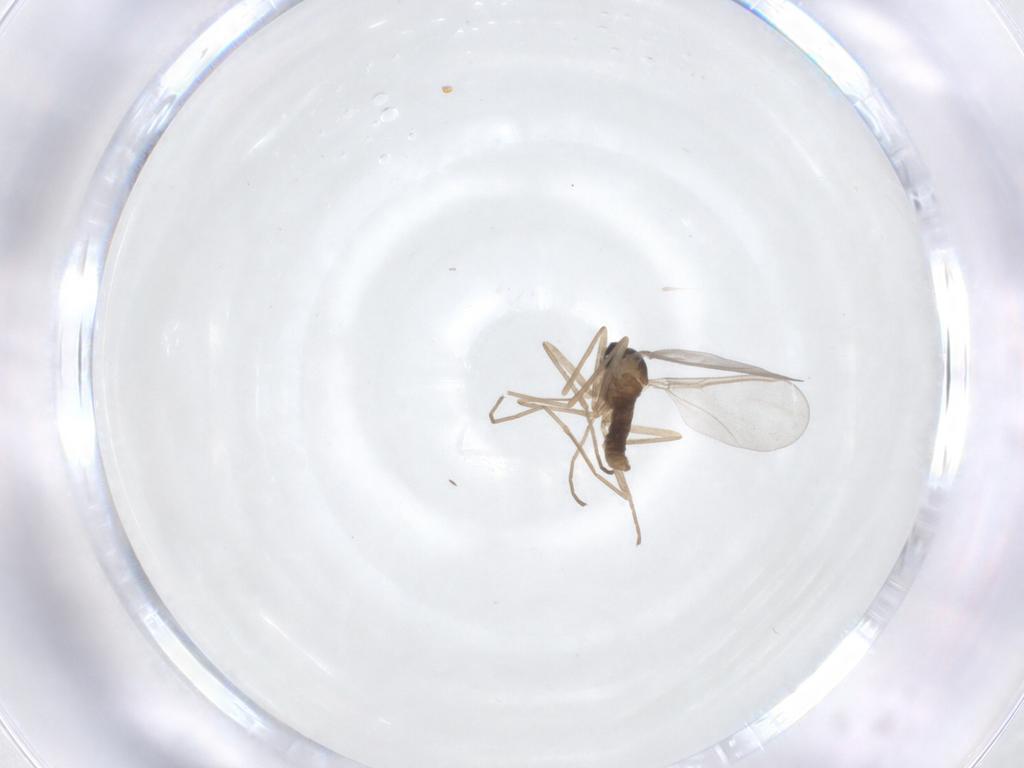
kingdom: Animalia
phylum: Arthropoda
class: Insecta
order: Diptera
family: Cecidomyiidae
